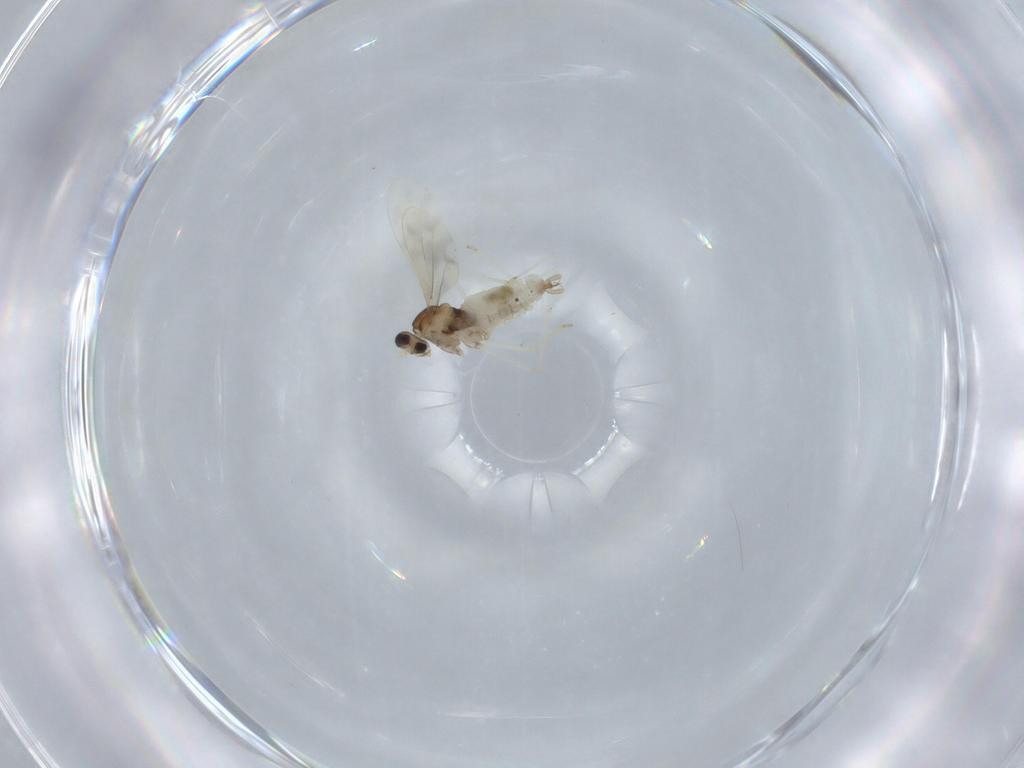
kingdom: Animalia
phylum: Arthropoda
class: Insecta
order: Diptera
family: Cecidomyiidae
